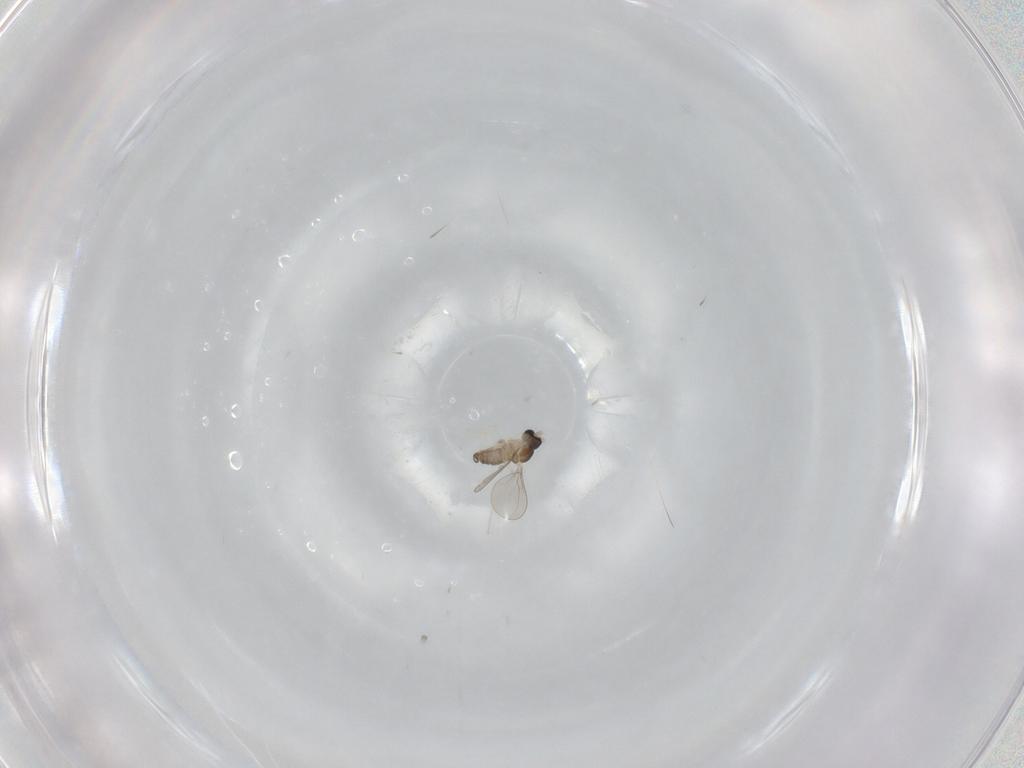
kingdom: Animalia
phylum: Arthropoda
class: Insecta
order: Diptera
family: Cecidomyiidae
